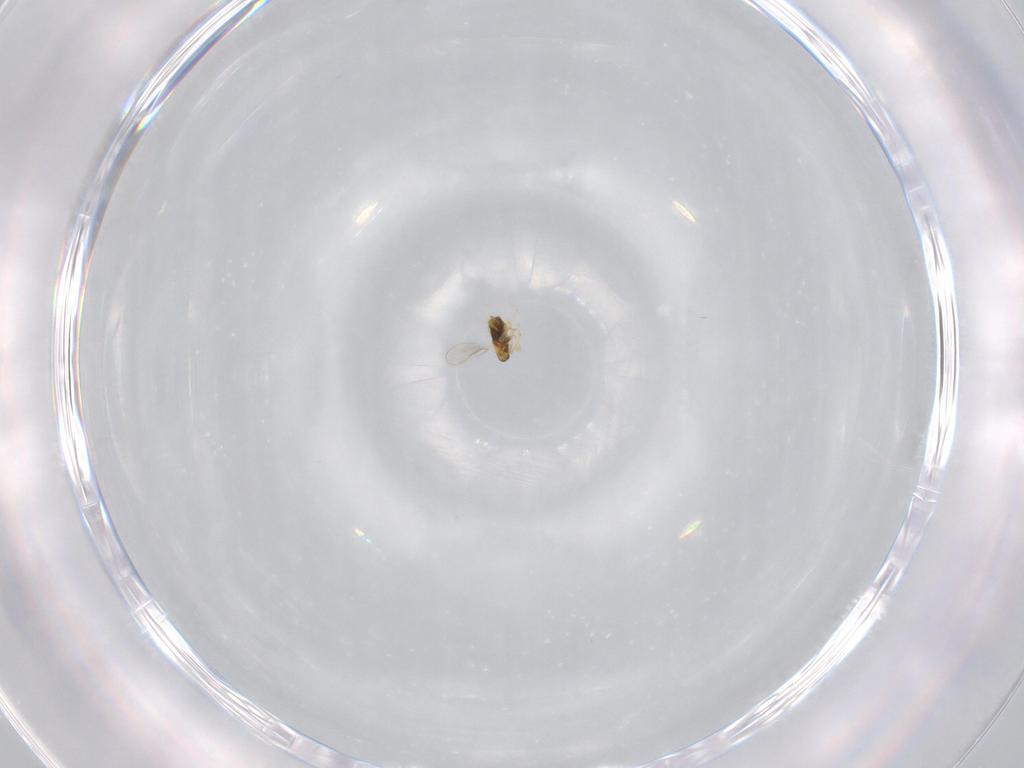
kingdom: Animalia
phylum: Arthropoda
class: Insecta
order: Hymenoptera
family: Aphelinidae
